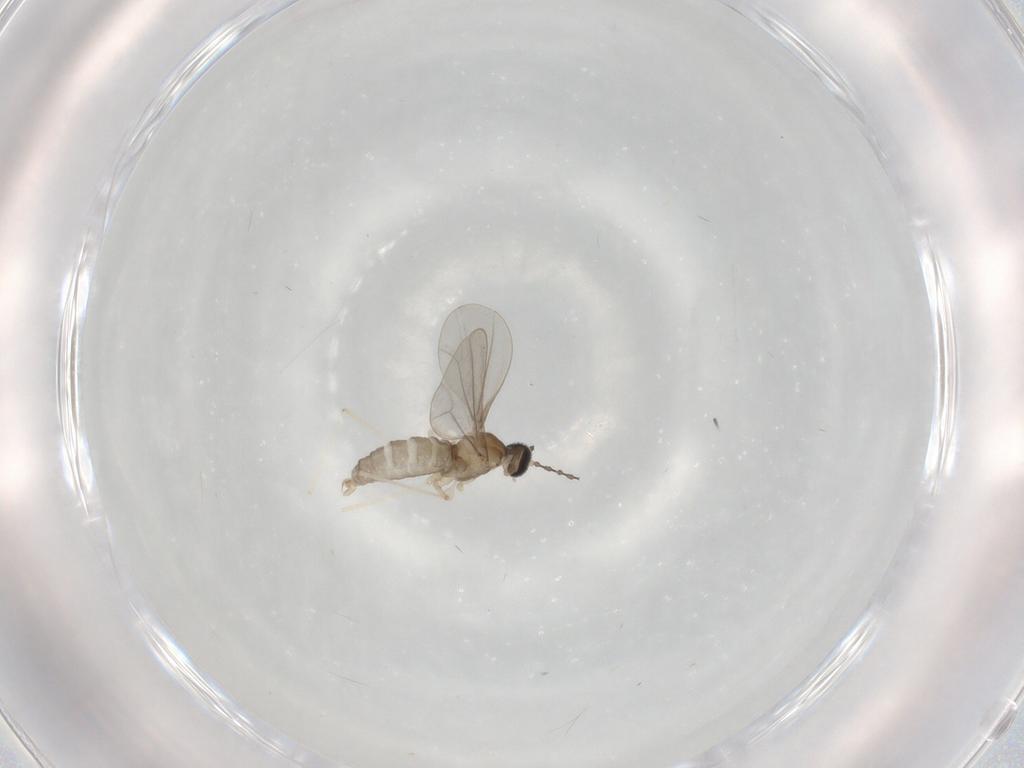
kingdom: Animalia
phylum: Arthropoda
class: Insecta
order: Diptera
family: Cecidomyiidae
